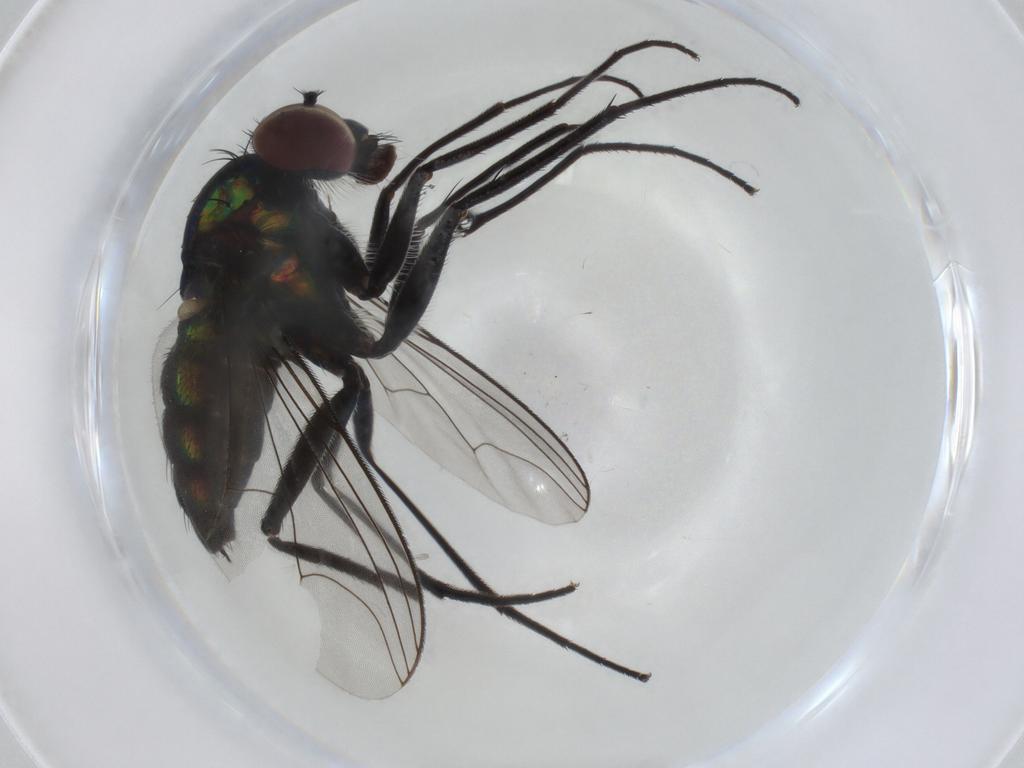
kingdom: Animalia
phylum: Arthropoda
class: Insecta
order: Diptera
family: Dolichopodidae
